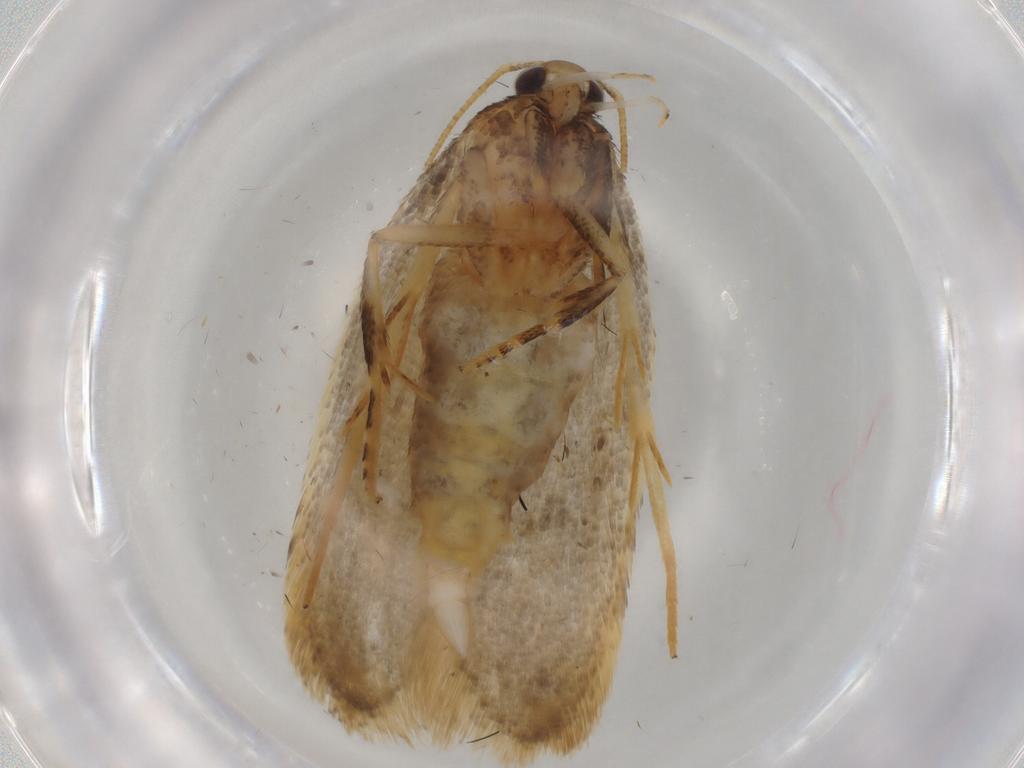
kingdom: Animalia
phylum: Arthropoda
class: Insecta
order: Lepidoptera
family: Gelechiidae
